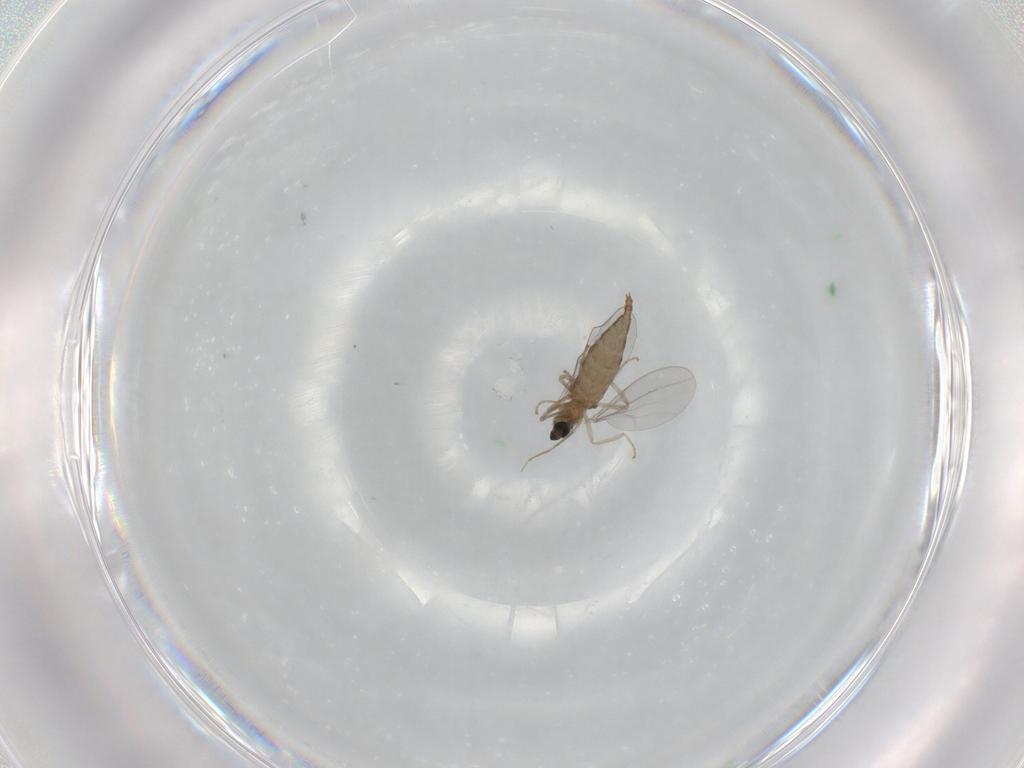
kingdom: Animalia
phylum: Arthropoda
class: Insecta
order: Diptera
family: Cecidomyiidae
